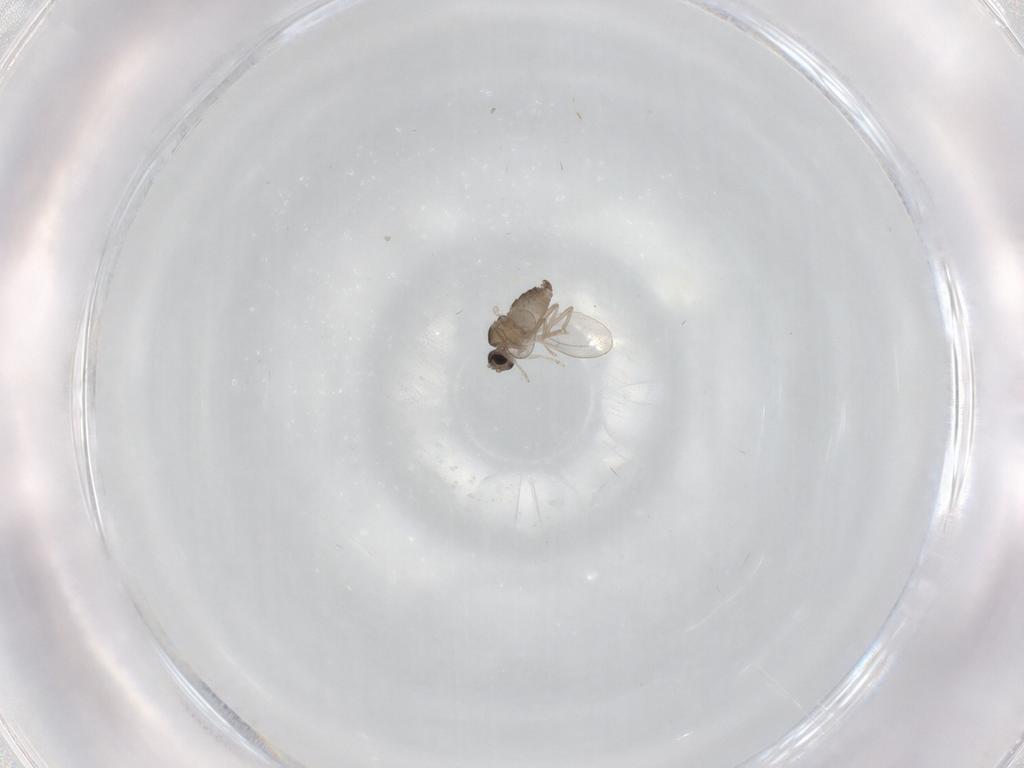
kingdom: Animalia
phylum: Arthropoda
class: Insecta
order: Diptera
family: Cecidomyiidae
